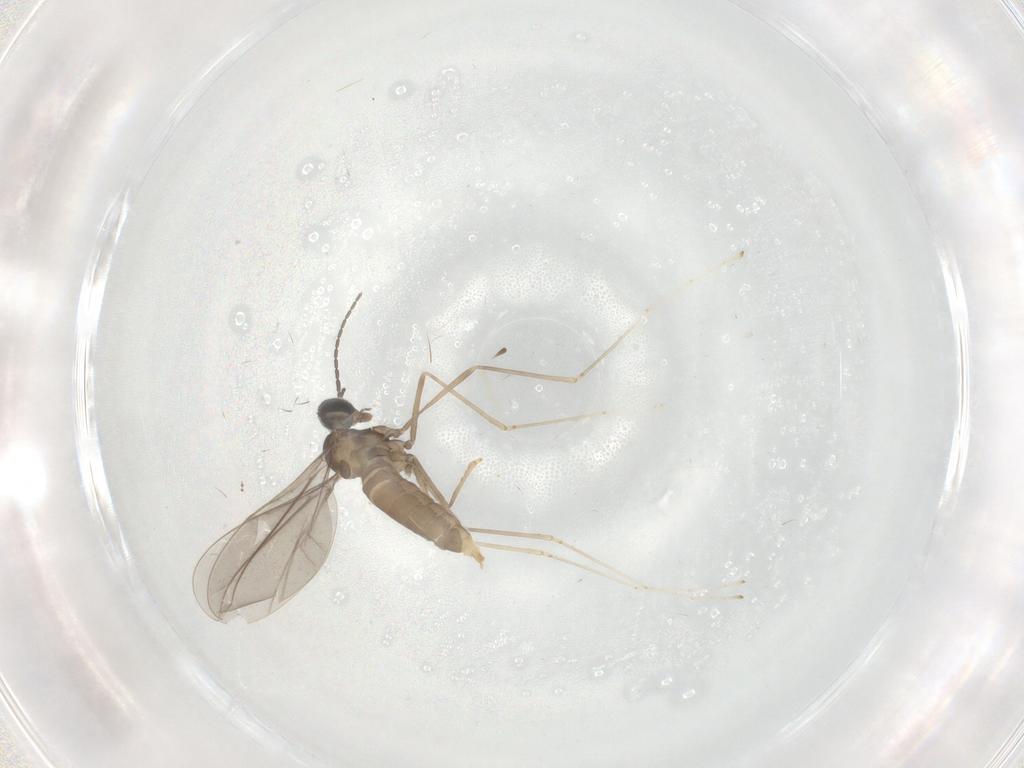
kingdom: Animalia
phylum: Arthropoda
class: Insecta
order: Diptera
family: Cecidomyiidae
